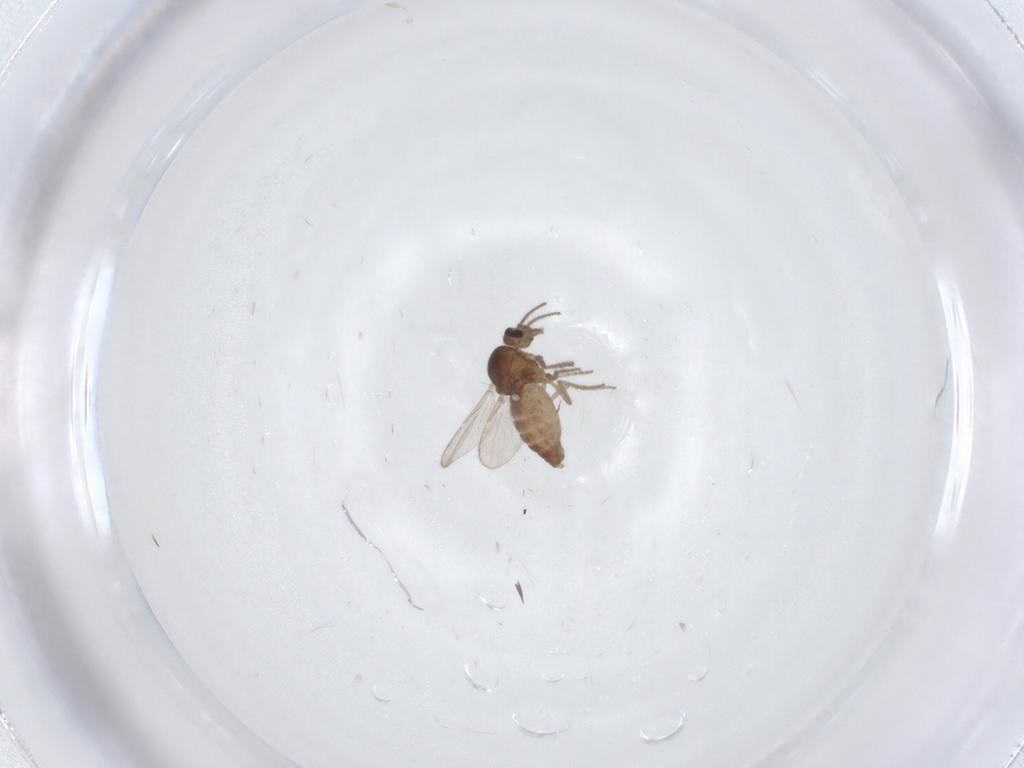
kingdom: Animalia
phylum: Arthropoda
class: Insecta
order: Diptera
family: Ceratopogonidae
